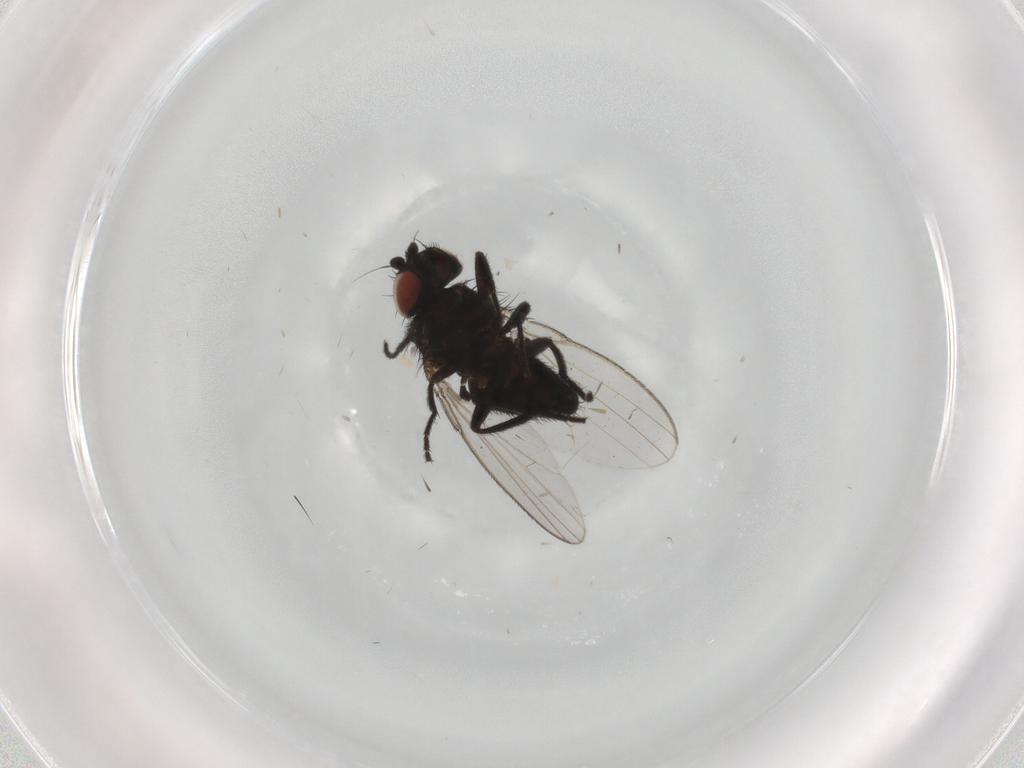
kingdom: Animalia
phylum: Arthropoda
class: Insecta
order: Diptera
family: Milichiidae
